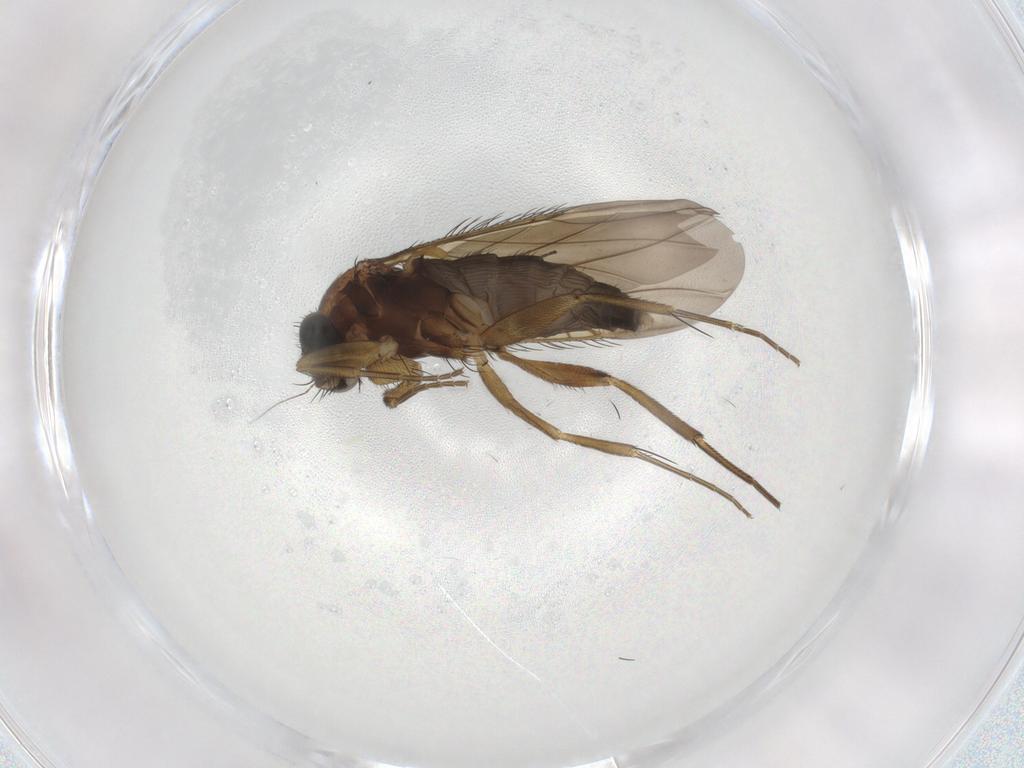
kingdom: Animalia
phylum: Arthropoda
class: Insecta
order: Diptera
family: Phoridae
